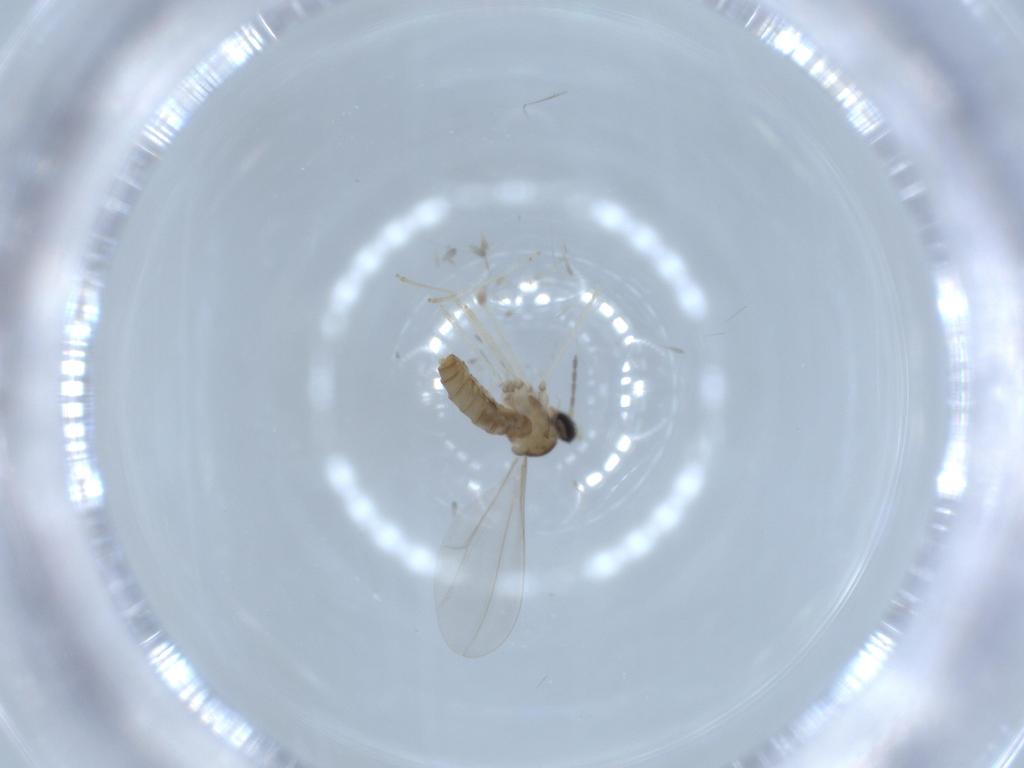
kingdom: Animalia
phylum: Arthropoda
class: Insecta
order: Diptera
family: Cecidomyiidae
